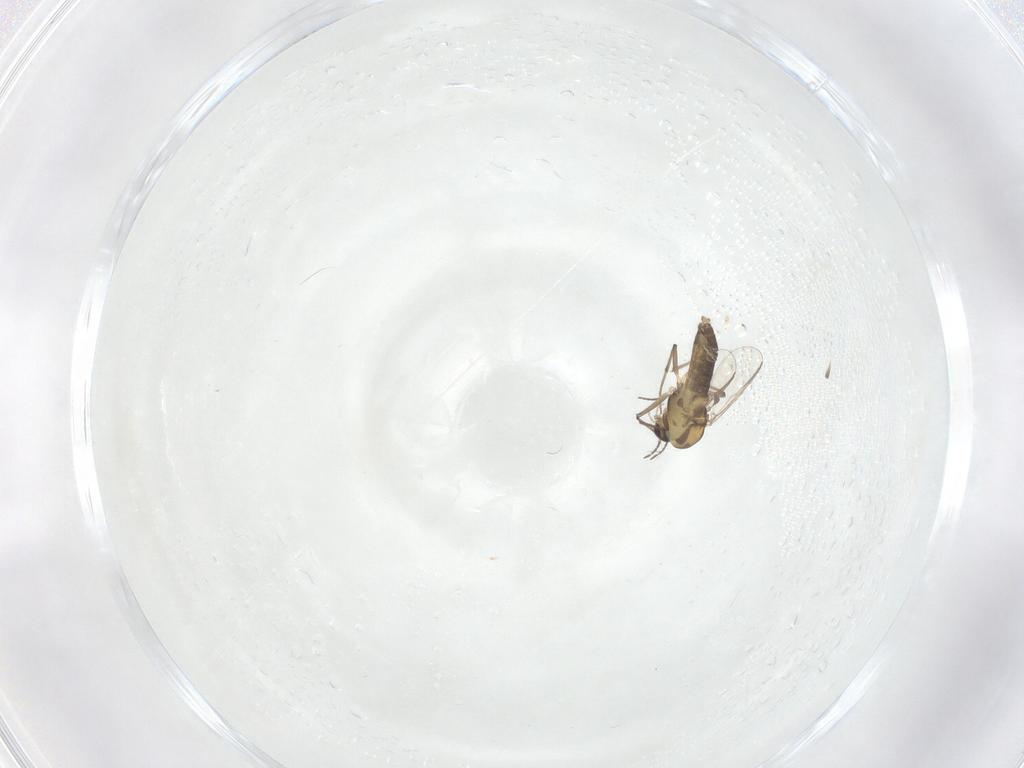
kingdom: Animalia
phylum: Arthropoda
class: Insecta
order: Diptera
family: Chironomidae
